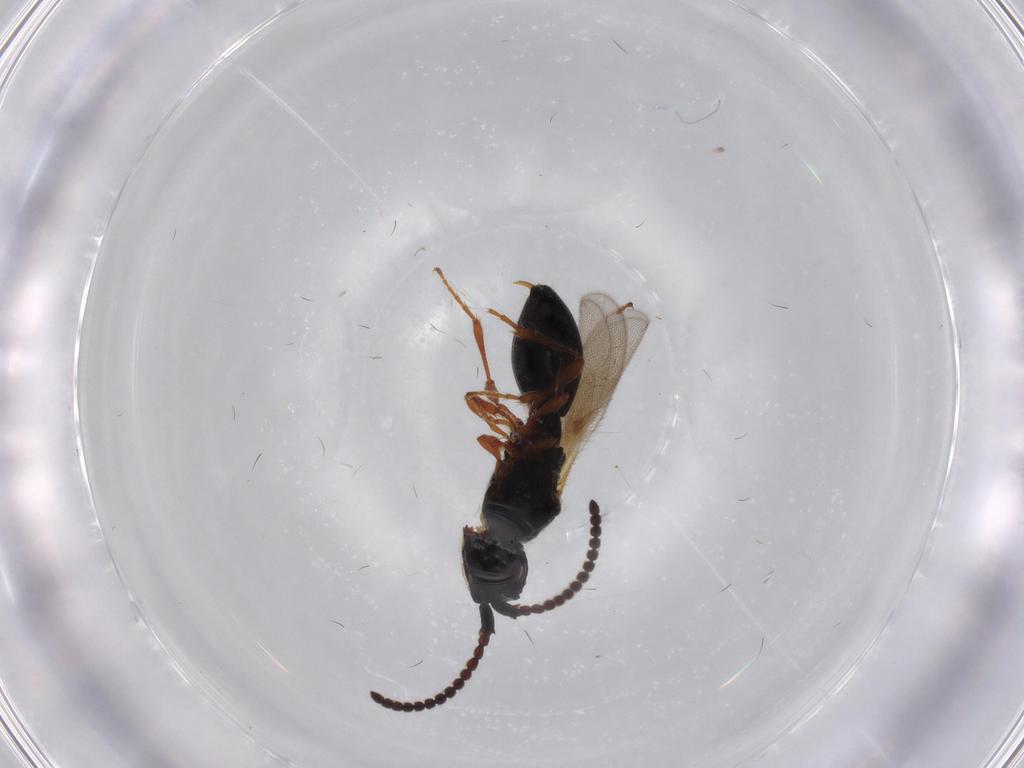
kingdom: Animalia
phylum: Arthropoda
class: Insecta
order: Hymenoptera
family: Diapriidae
